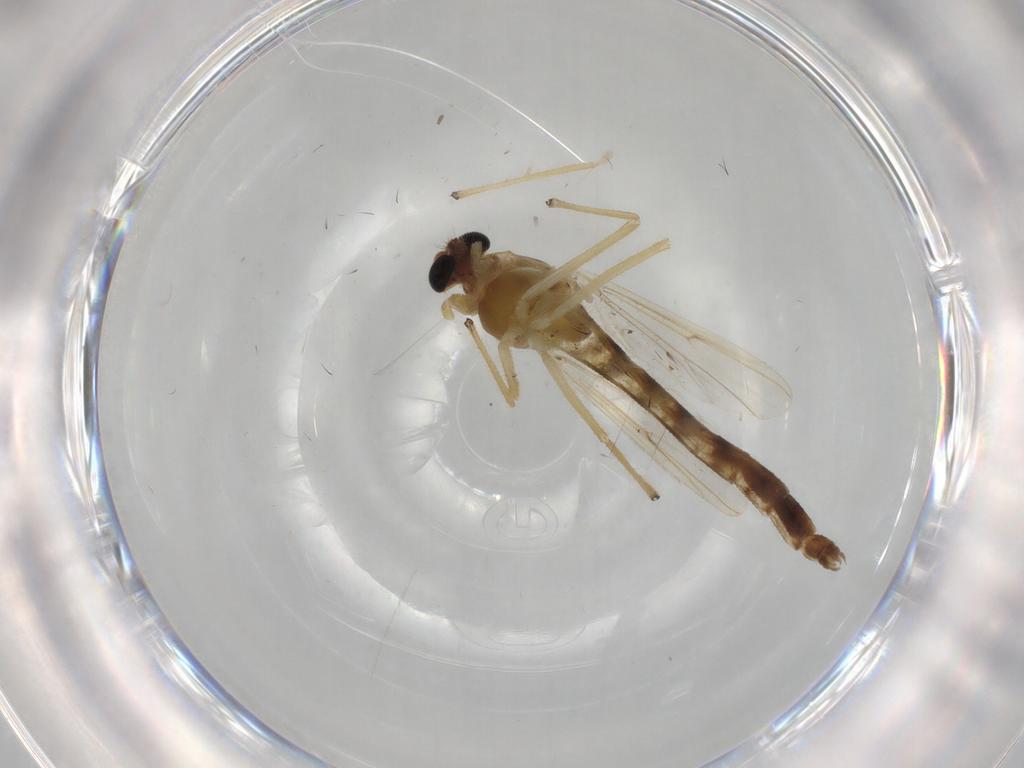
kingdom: Animalia
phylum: Arthropoda
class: Insecta
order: Diptera
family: Chironomidae
